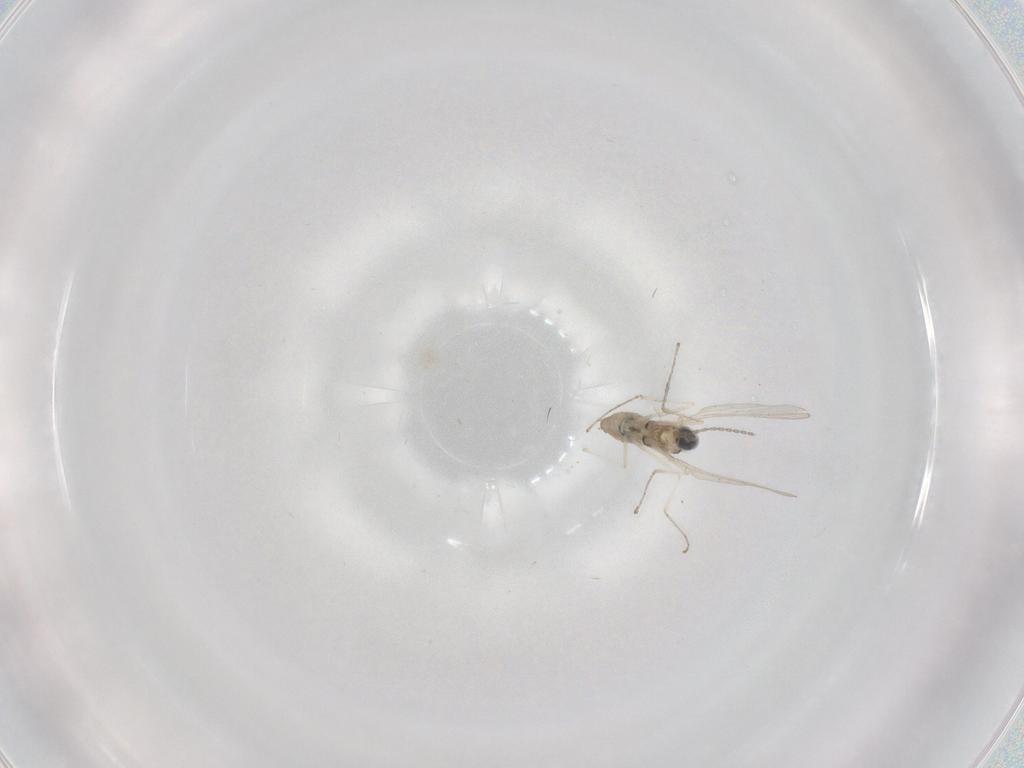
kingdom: Animalia
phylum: Arthropoda
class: Insecta
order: Diptera
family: Cecidomyiidae
